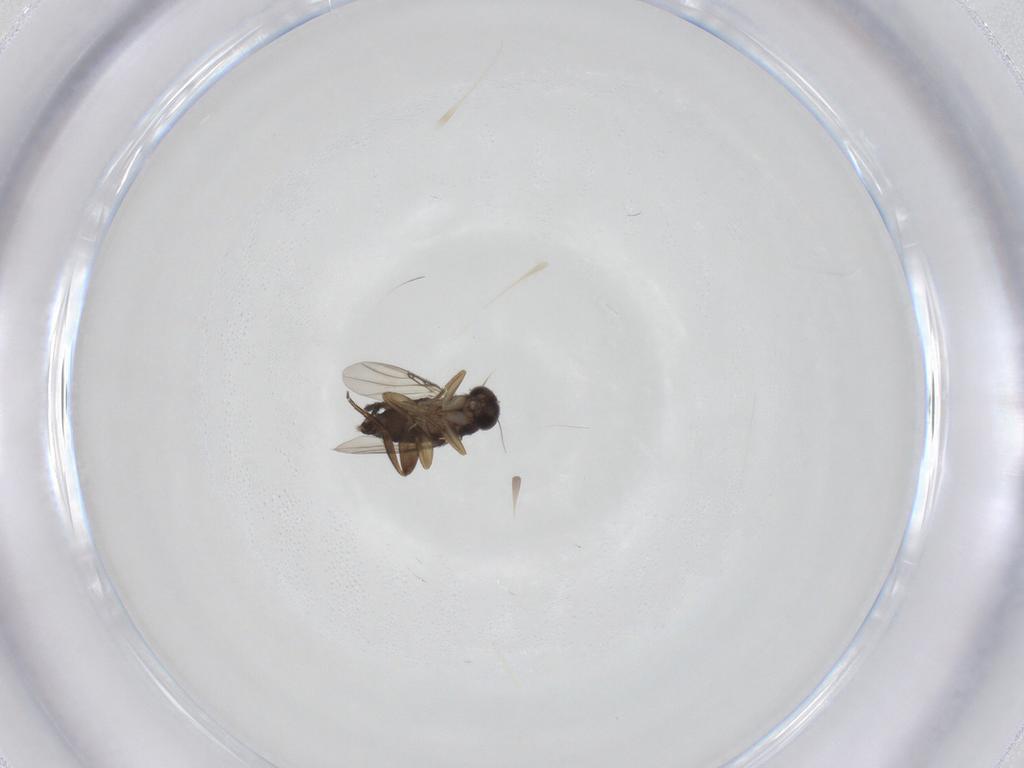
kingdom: Animalia
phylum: Arthropoda
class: Insecta
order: Diptera
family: Phoridae
